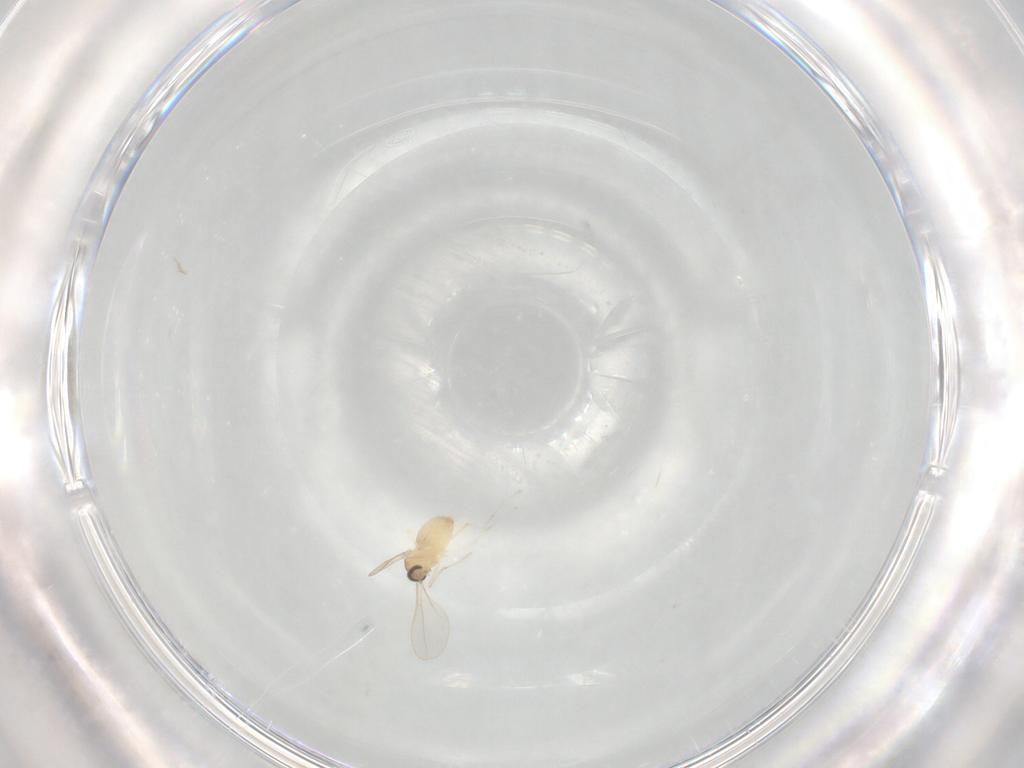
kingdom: Animalia
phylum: Arthropoda
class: Insecta
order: Diptera
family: Cecidomyiidae
